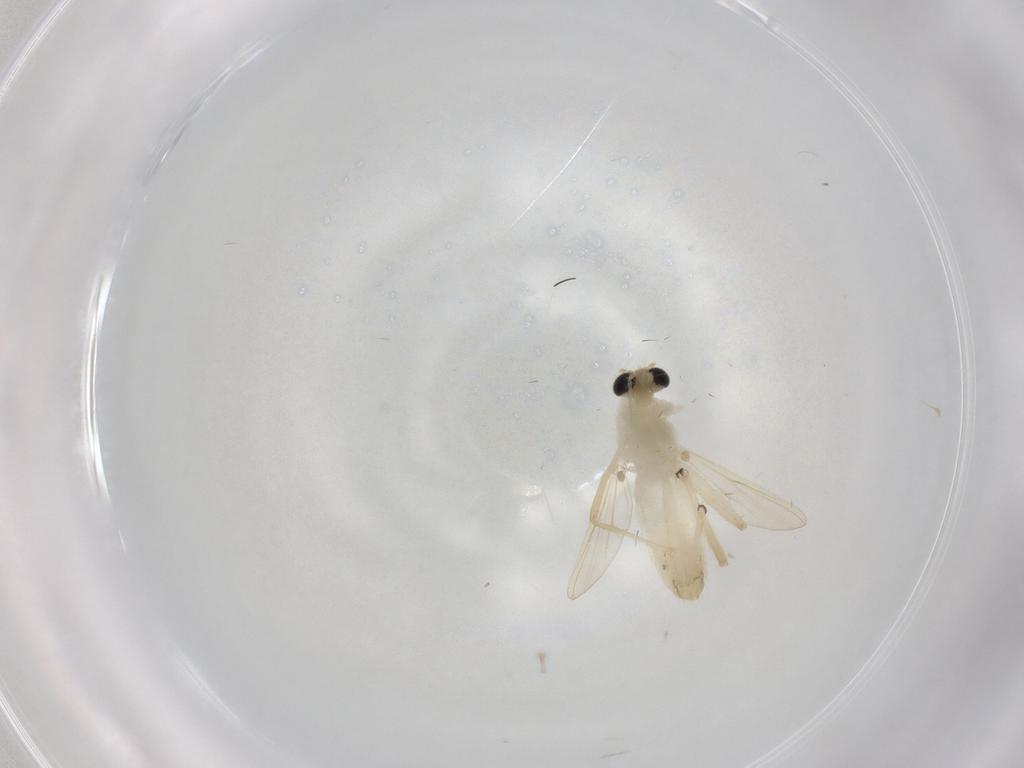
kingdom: Animalia
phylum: Arthropoda
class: Insecta
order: Diptera
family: Chironomidae
